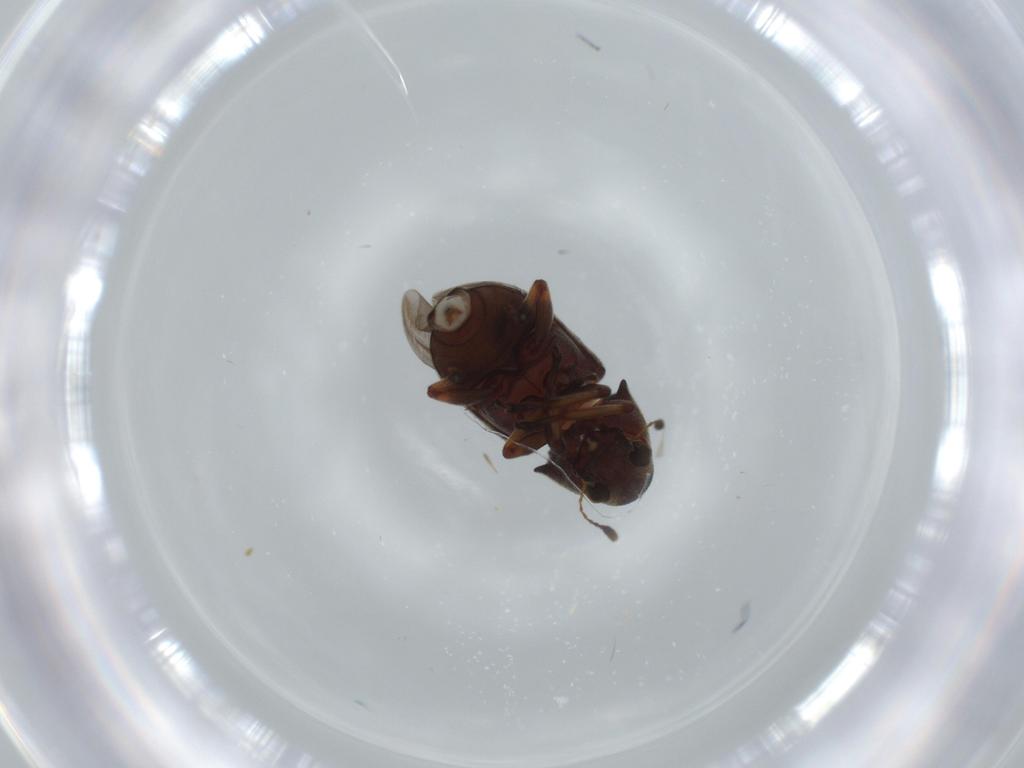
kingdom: Animalia
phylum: Arthropoda
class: Insecta
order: Coleoptera
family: Anthribidae
